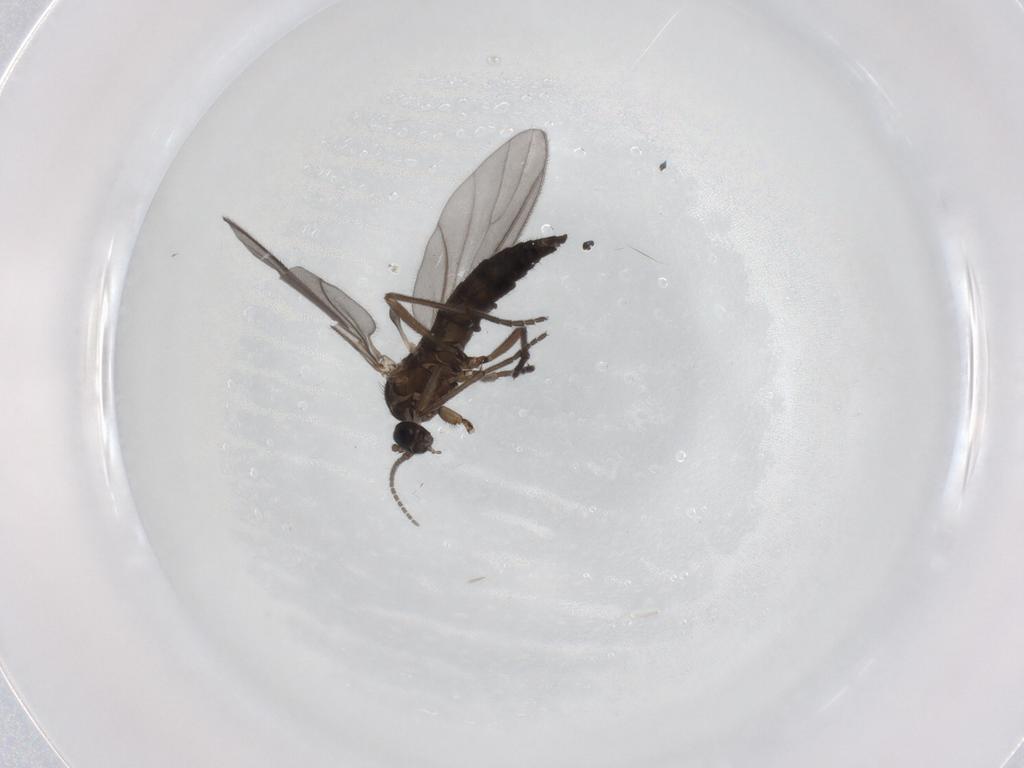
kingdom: Animalia
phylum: Arthropoda
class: Insecta
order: Diptera
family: Sciaridae
